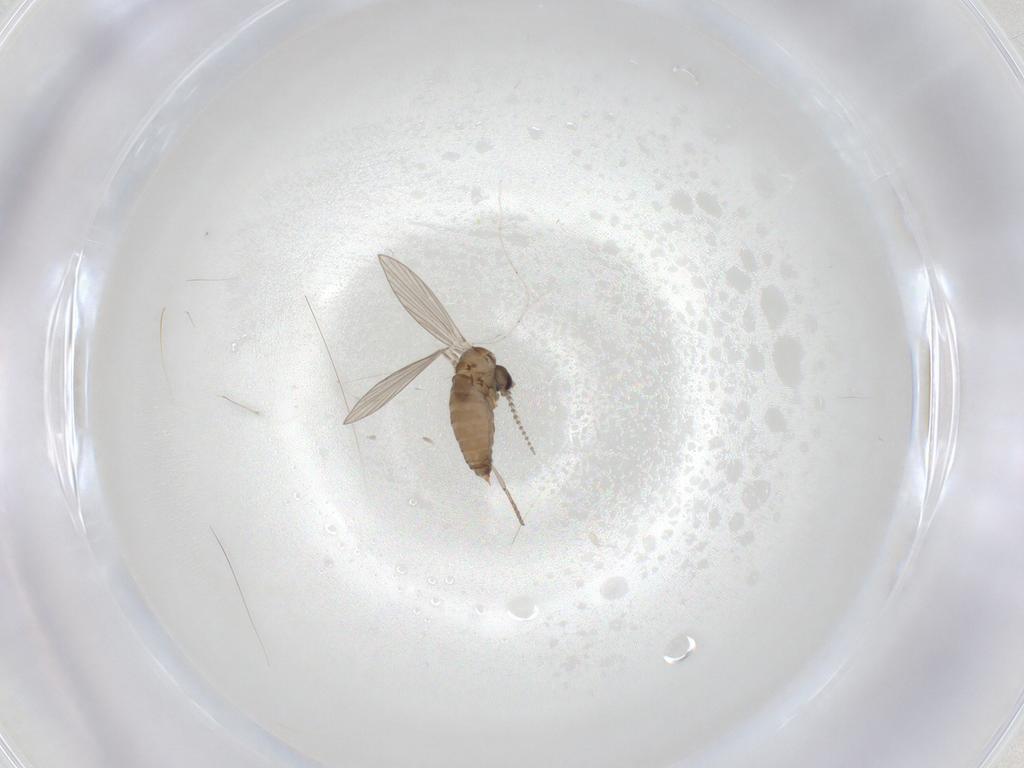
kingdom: Animalia
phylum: Arthropoda
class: Insecta
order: Diptera
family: Psychodidae
